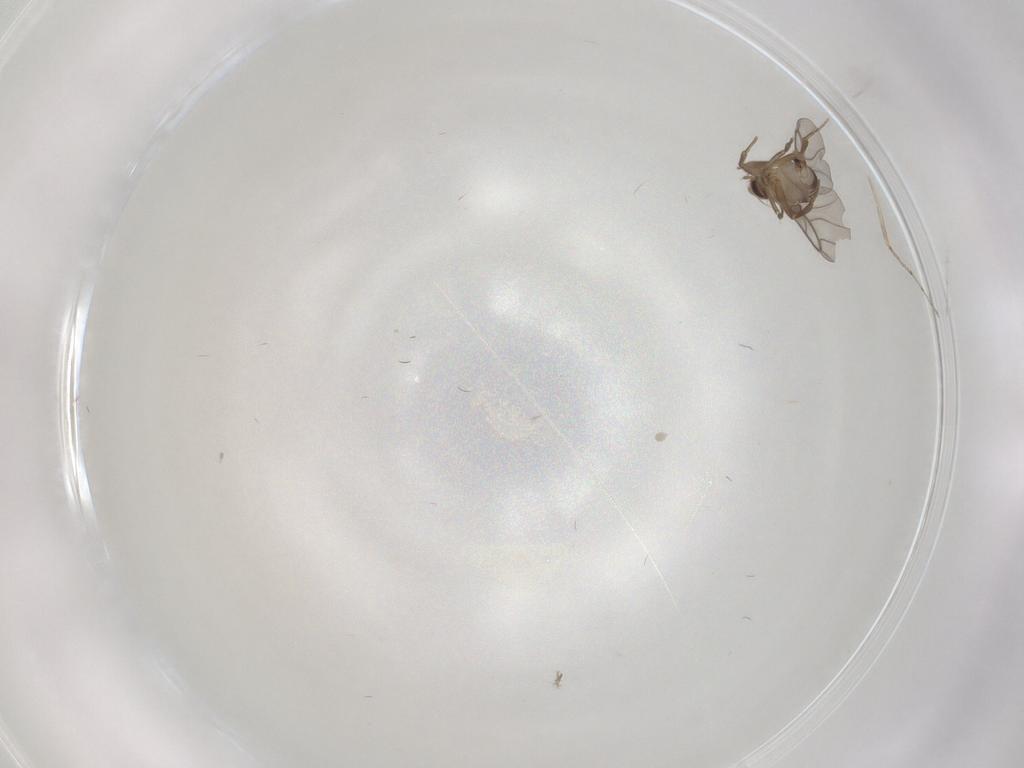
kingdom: Animalia
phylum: Arthropoda
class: Insecta
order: Diptera
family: Cecidomyiidae
